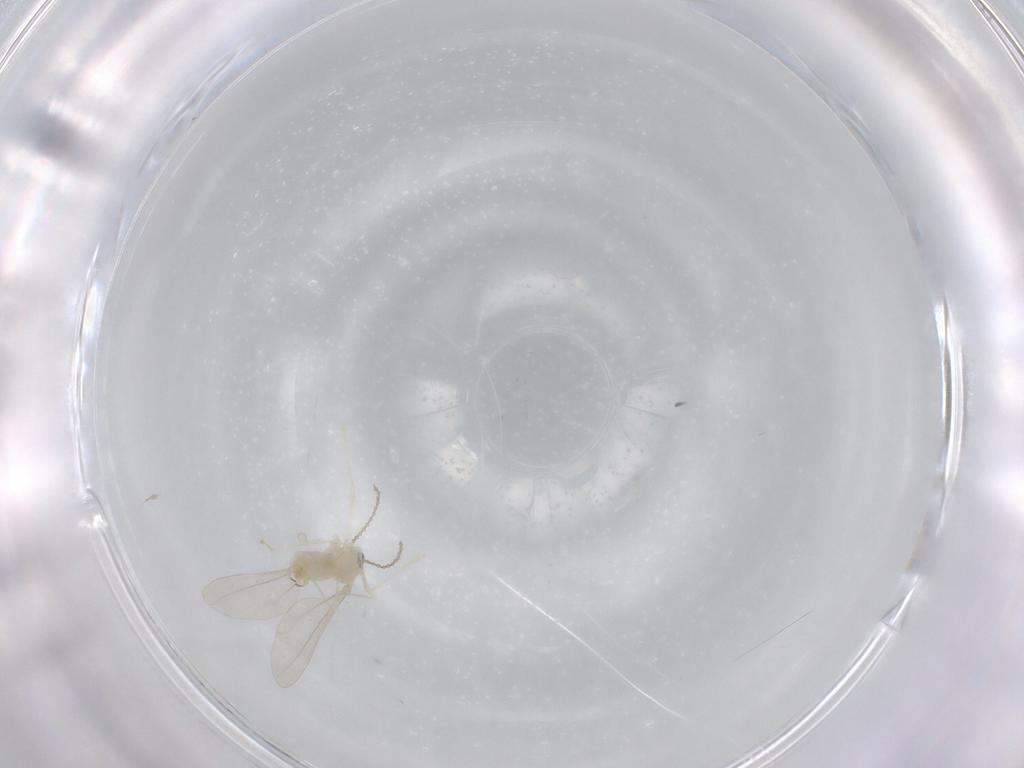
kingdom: Animalia
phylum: Arthropoda
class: Insecta
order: Diptera
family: Cecidomyiidae
